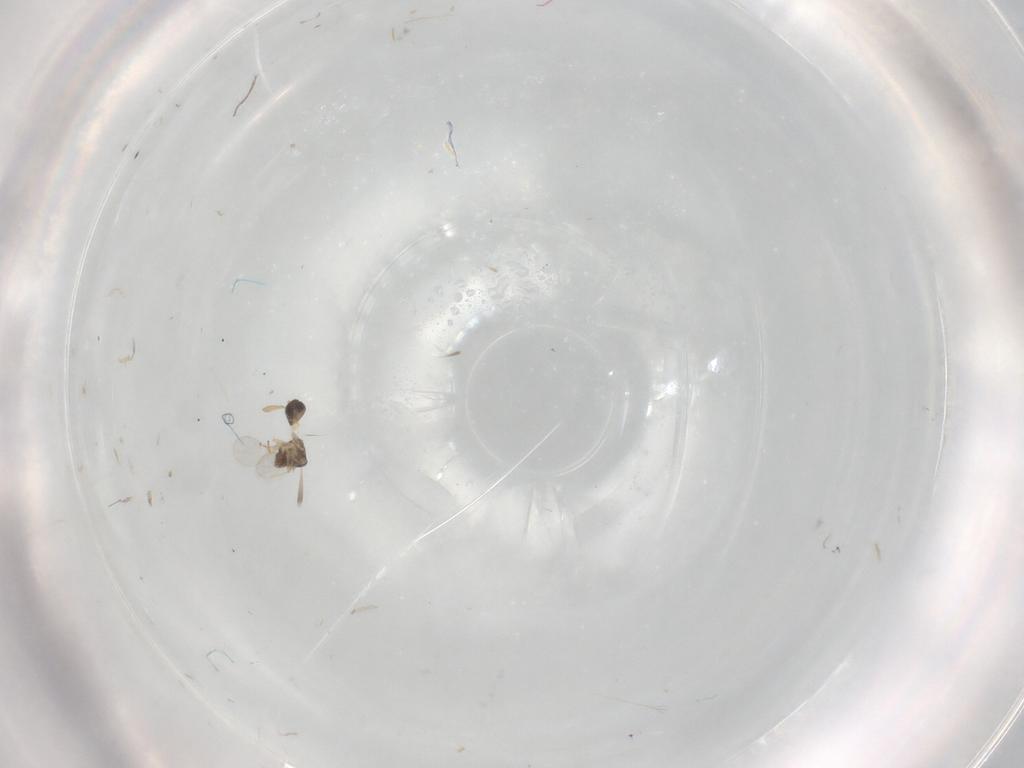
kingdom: Animalia
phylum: Arthropoda
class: Insecta
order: Hymenoptera
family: Encyrtidae
